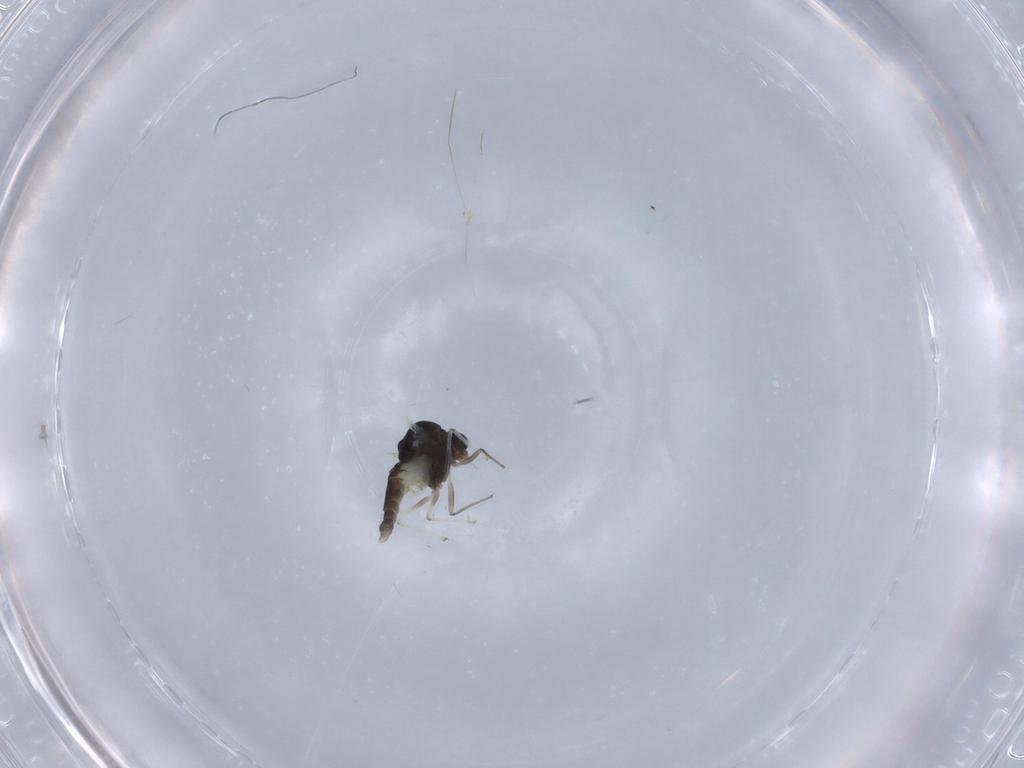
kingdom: Animalia
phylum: Arthropoda
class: Insecta
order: Diptera
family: Chironomidae
